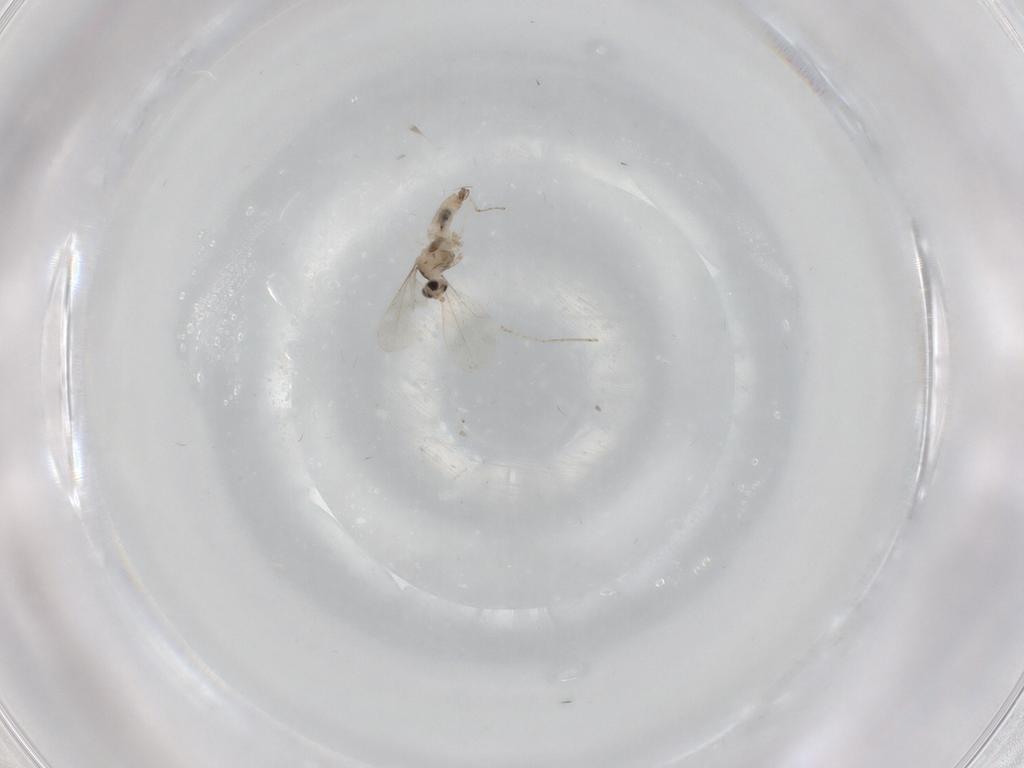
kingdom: Animalia
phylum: Arthropoda
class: Insecta
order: Diptera
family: Cecidomyiidae
